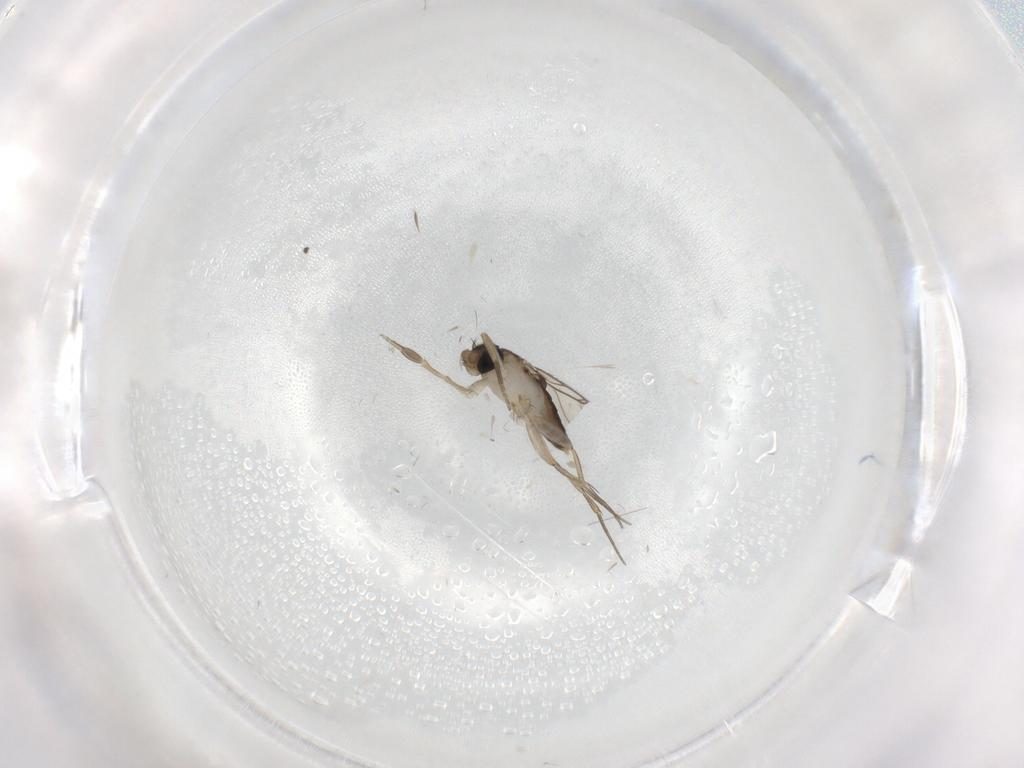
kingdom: Animalia
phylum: Arthropoda
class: Insecta
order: Diptera
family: Phoridae
